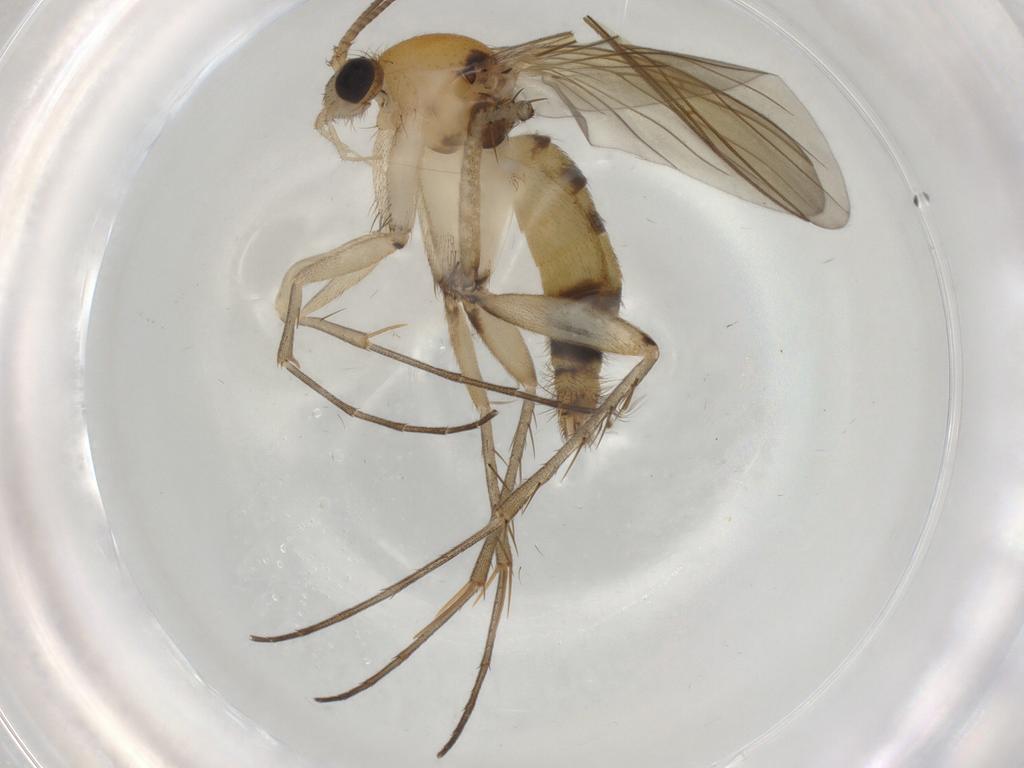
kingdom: Animalia
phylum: Arthropoda
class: Insecta
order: Diptera
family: Mycetophilidae
